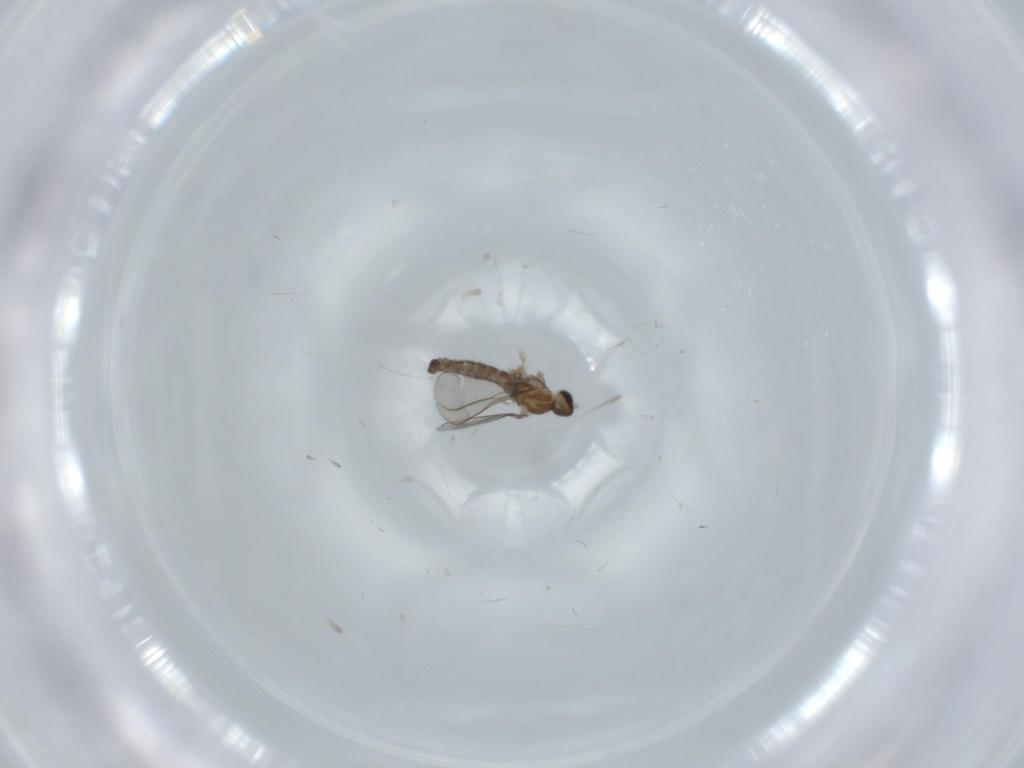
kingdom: Animalia
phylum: Arthropoda
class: Insecta
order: Diptera
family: Cecidomyiidae
